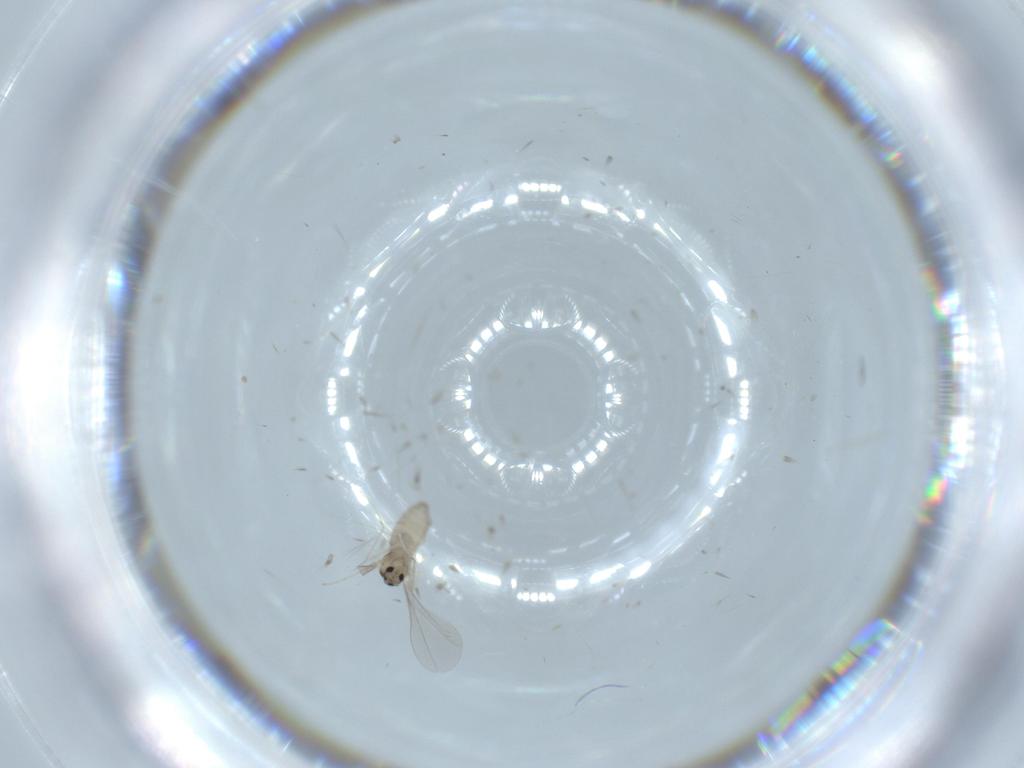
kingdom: Animalia
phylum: Arthropoda
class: Insecta
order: Diptera
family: Cecidomyiidae
